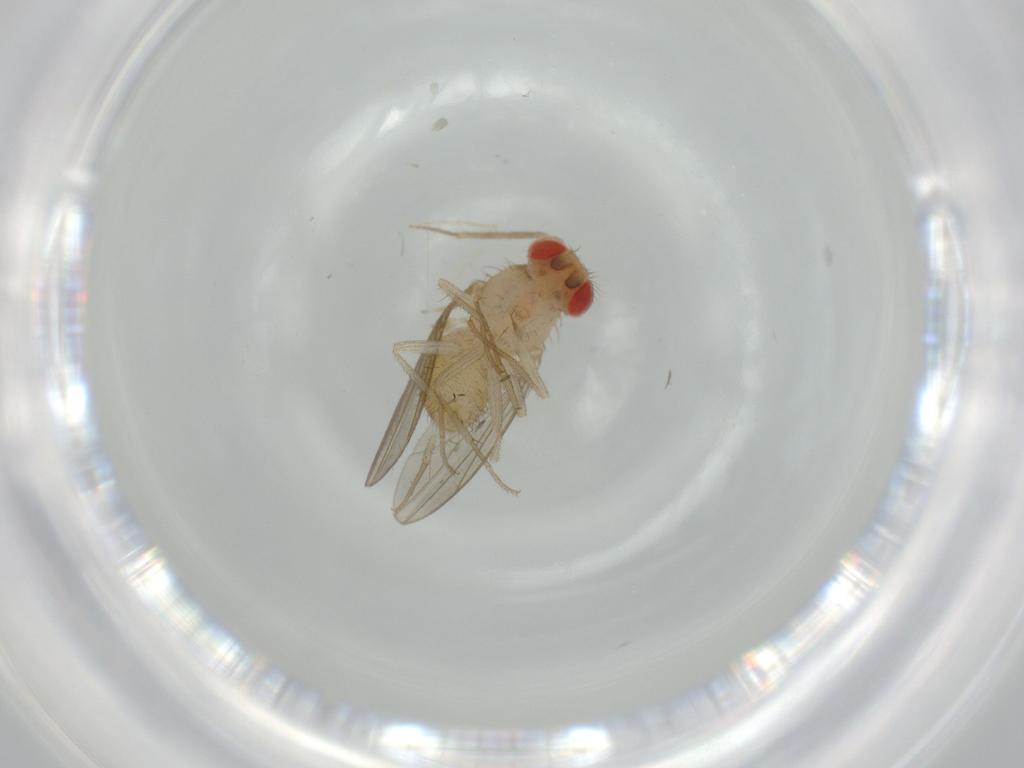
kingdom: Animalia
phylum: Arthropoda
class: Insecta
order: Diptera
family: Drosophilidae
